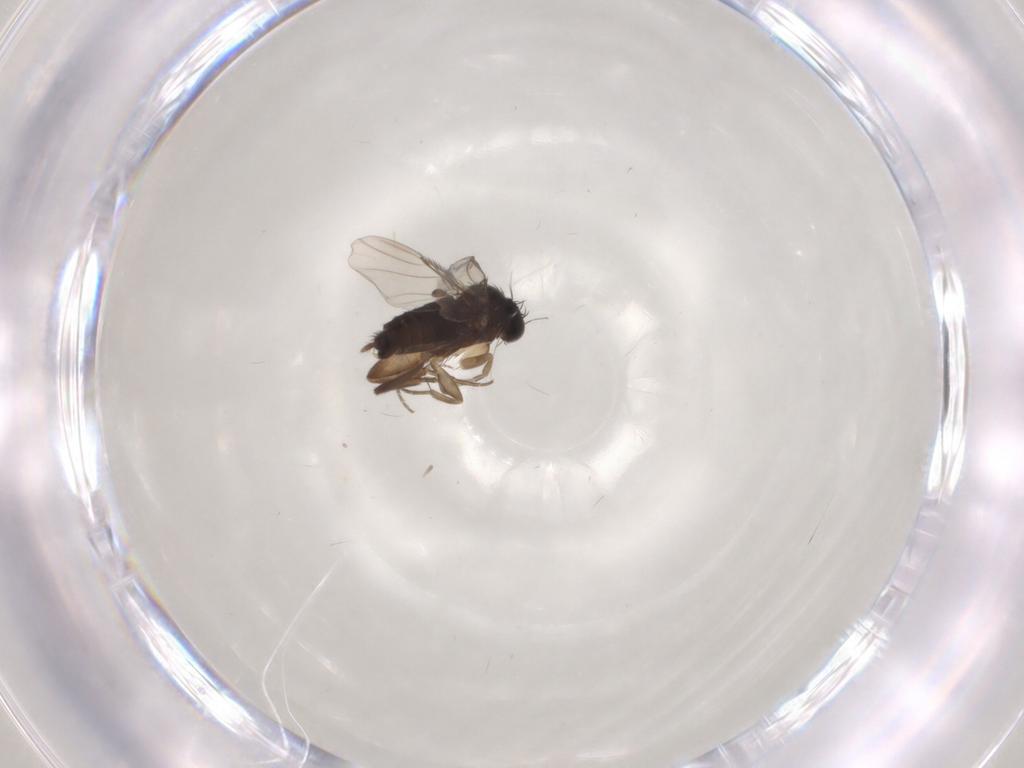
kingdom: Animalia
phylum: Arthropoda
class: Insecta
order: Diptera
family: Cecidomyiidae
